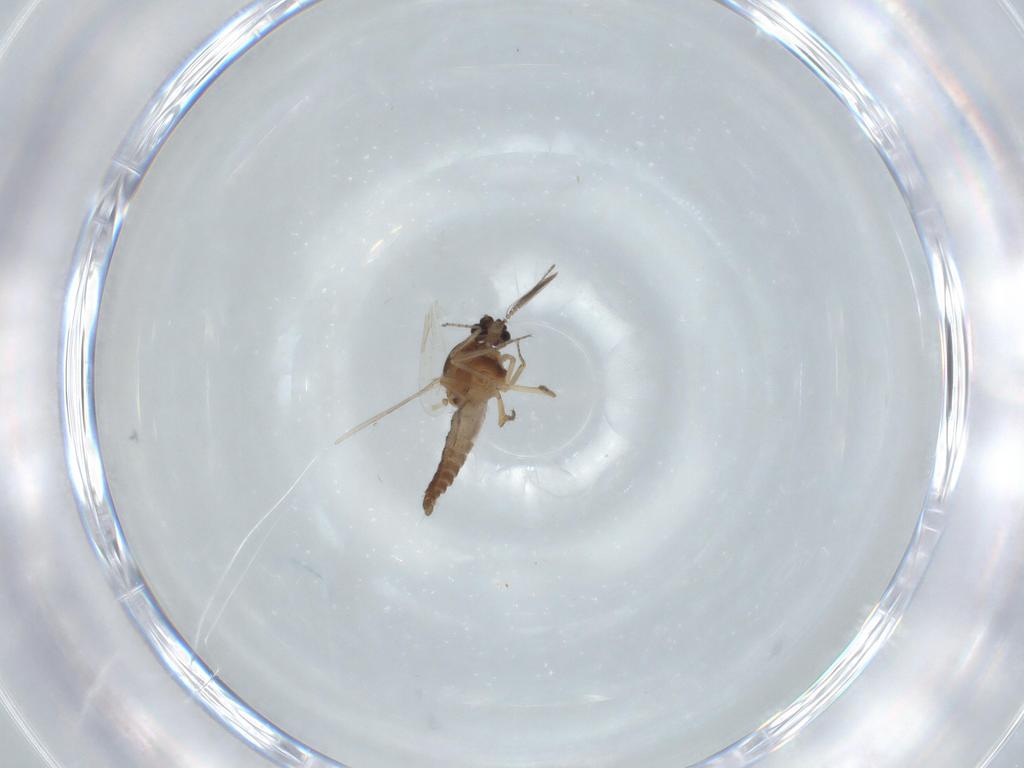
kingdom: Animalia
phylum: Arthropoda
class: Insecta
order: Diptera
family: Ceratopogonidae
